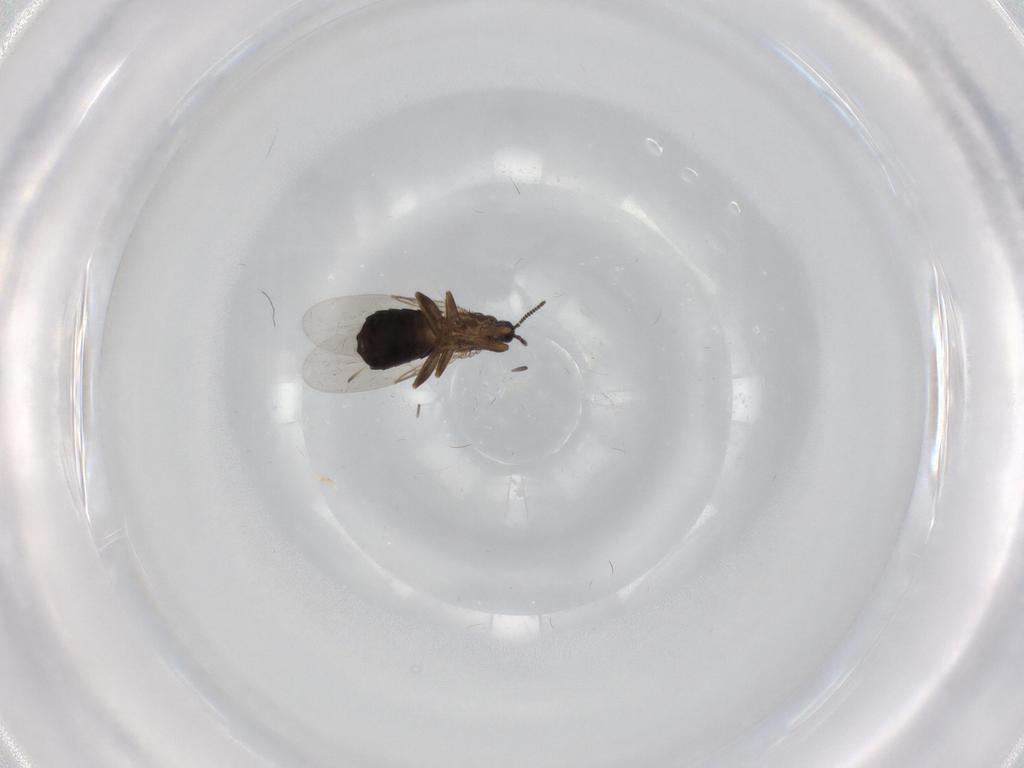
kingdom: Animalia
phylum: Arthropoda
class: Insecta
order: Diptera
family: Scatopsidae
